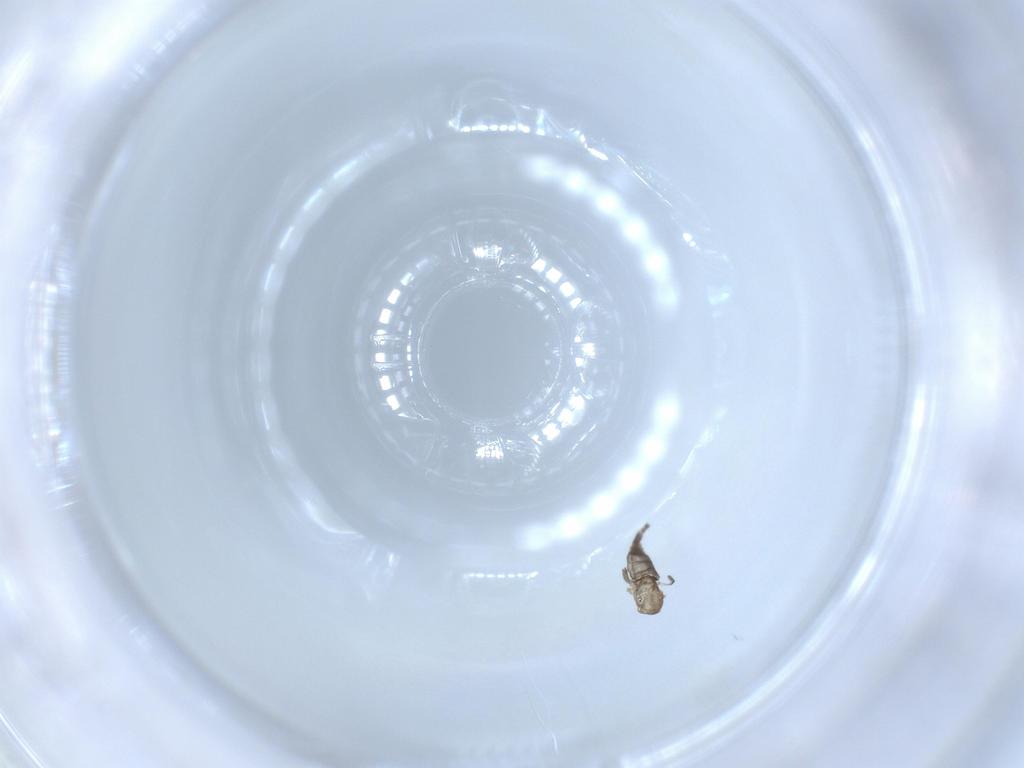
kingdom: Animalia
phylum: Arthropoda
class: Insecta
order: Diptera
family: Sciaridae
